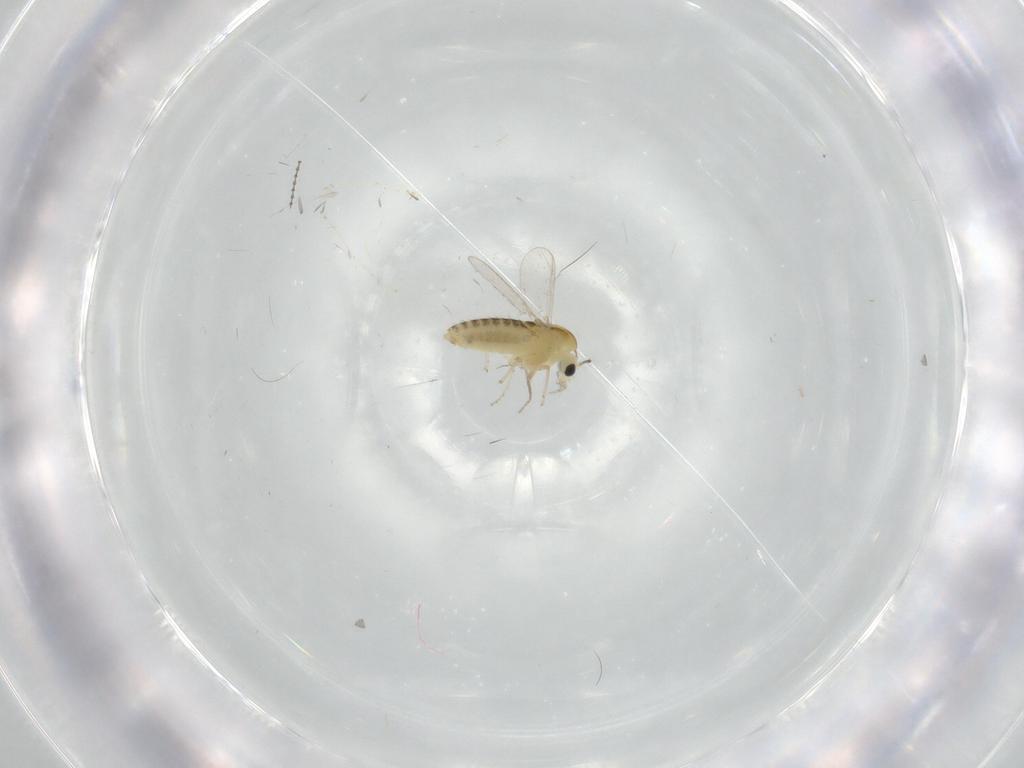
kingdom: Animalia
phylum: Arthropoda
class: Insecta
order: Diptera
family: Chironomidae
